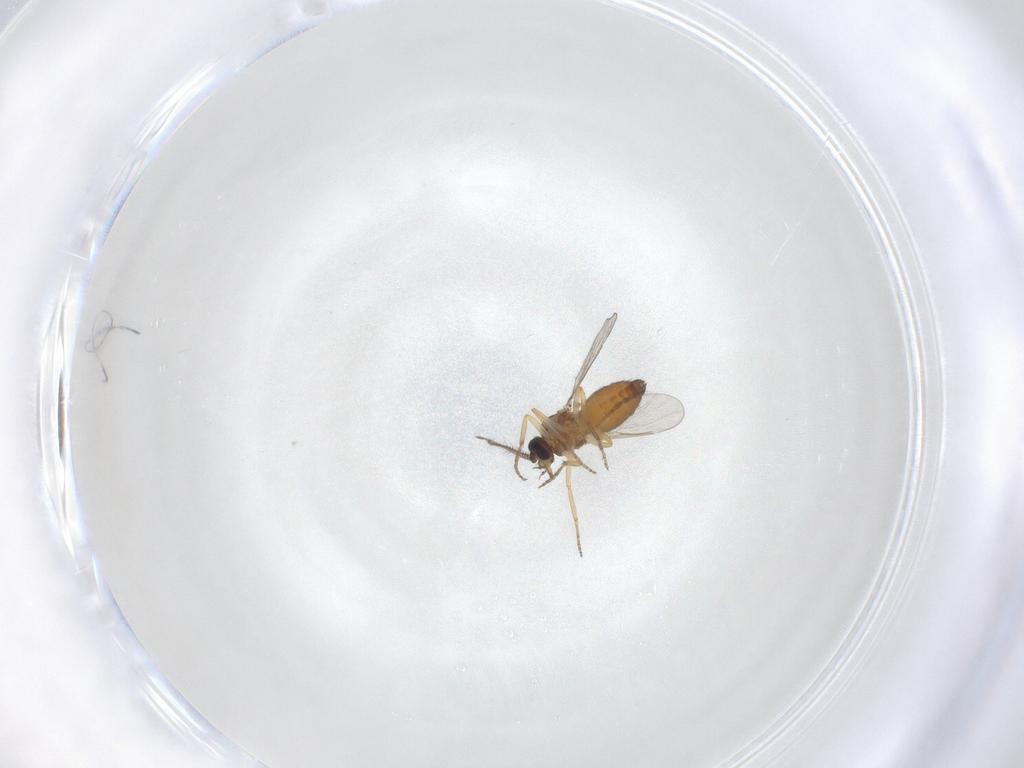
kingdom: Animalia
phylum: Arthropoda
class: Insecta
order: Diptera
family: Ceratopogonidae
